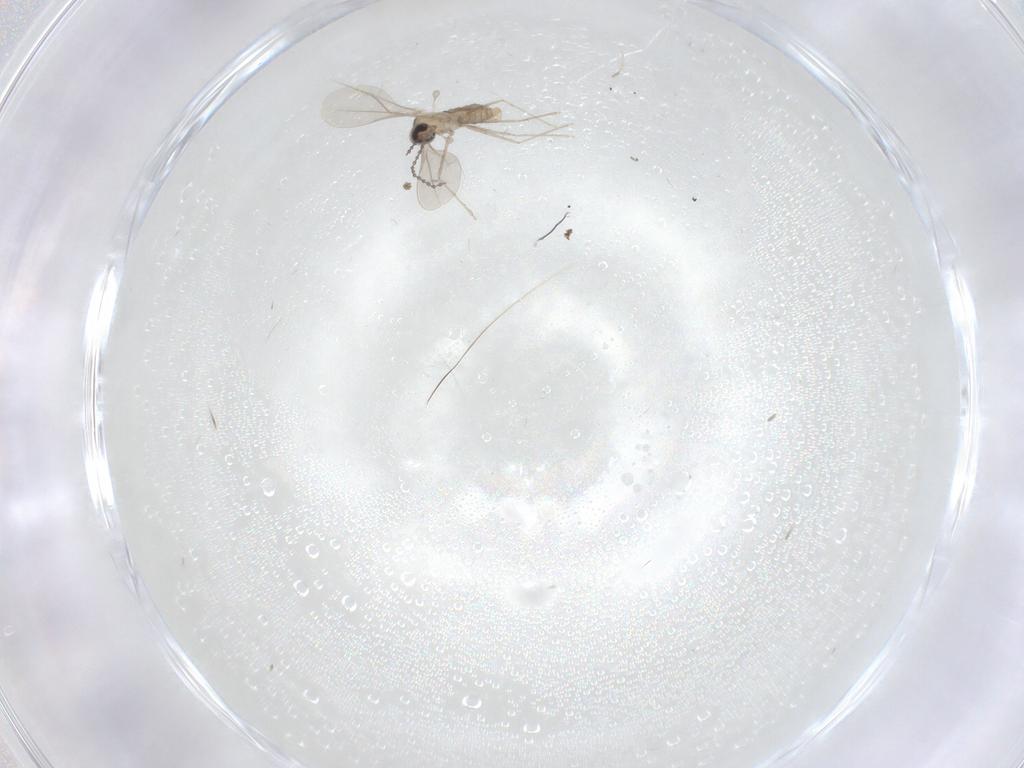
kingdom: Animalia
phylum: Arthropoda
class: Insecta
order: Diptera
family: Cecidomyiidae
